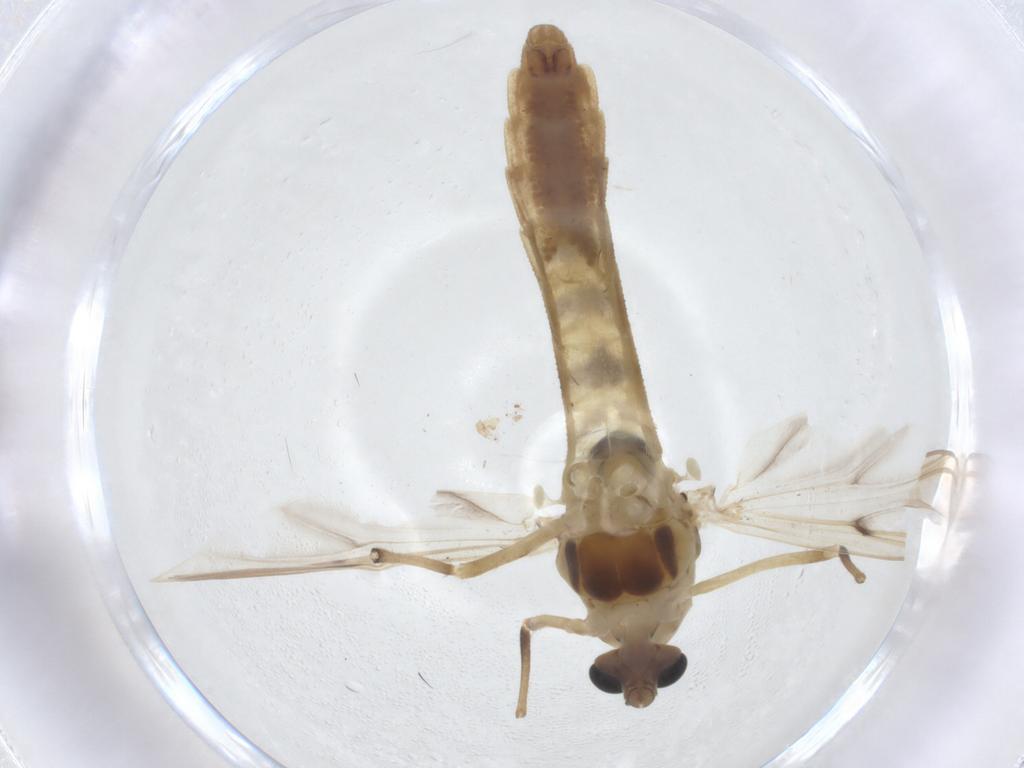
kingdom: Animalia
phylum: Arthropoda
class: Insecta
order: Diptera
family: Chironomidae
